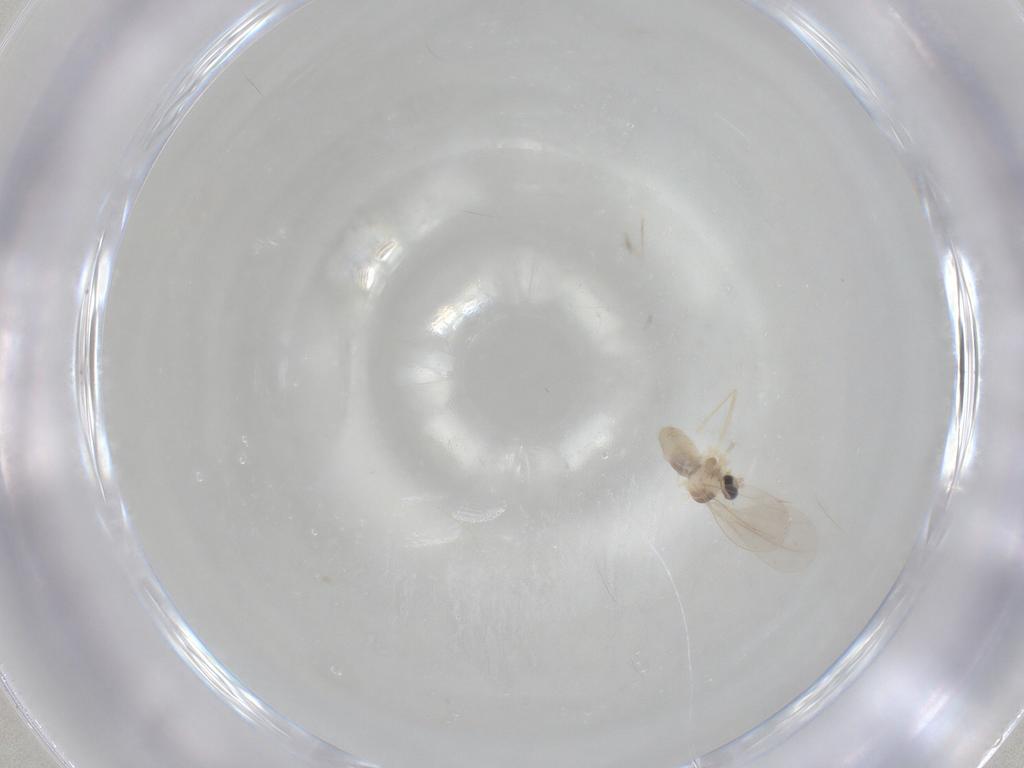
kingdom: Animalia
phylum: Arthropoda
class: Insecta
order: Diptera
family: Cecidomyiidae
